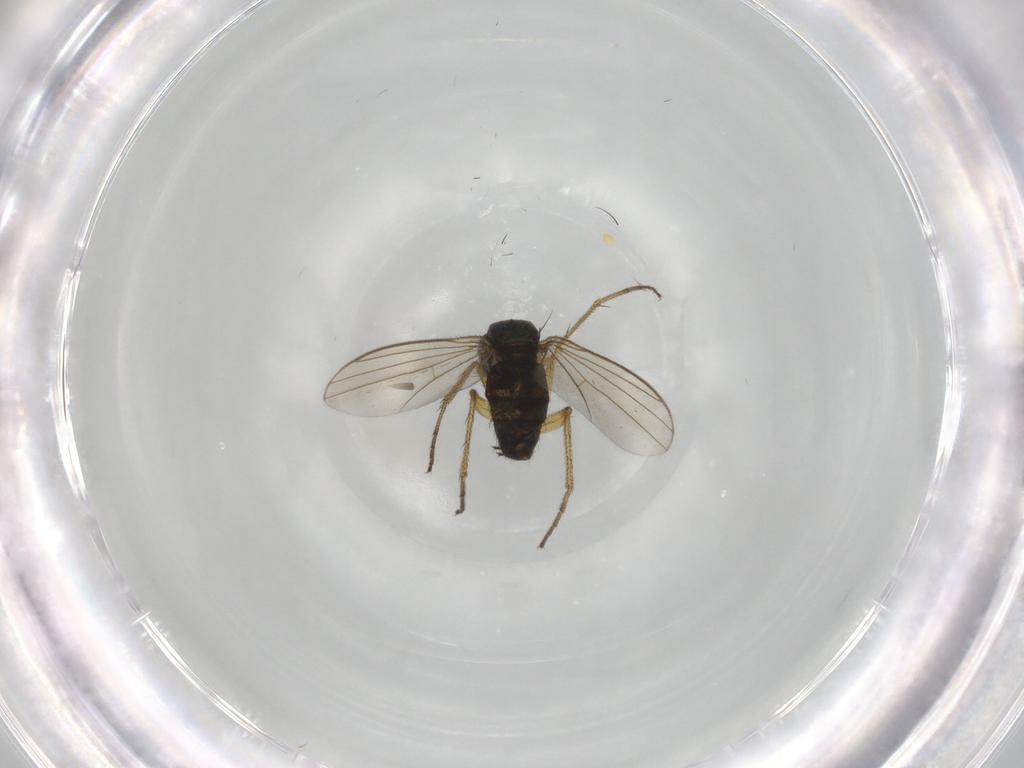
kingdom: Animalia
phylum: Arthropoda
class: Insecta
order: Diptera
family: Dolichopodidae
